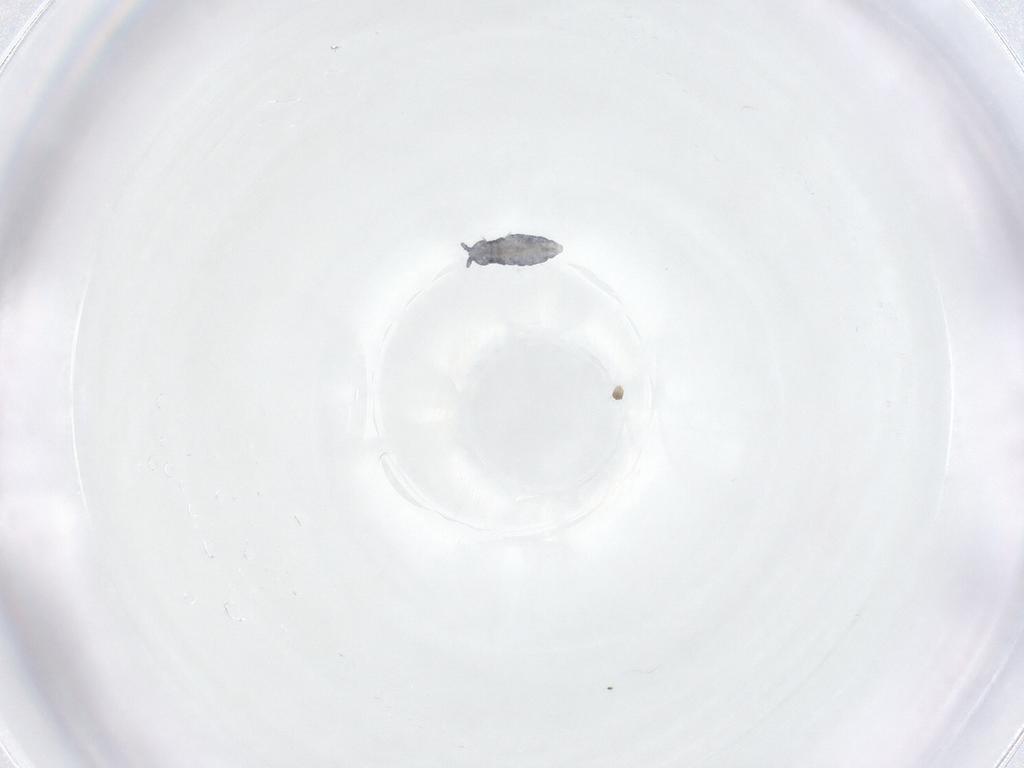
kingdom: Animalia
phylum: Arthropoda
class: Collembola
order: Poduromorpha
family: Hypogastruridae
